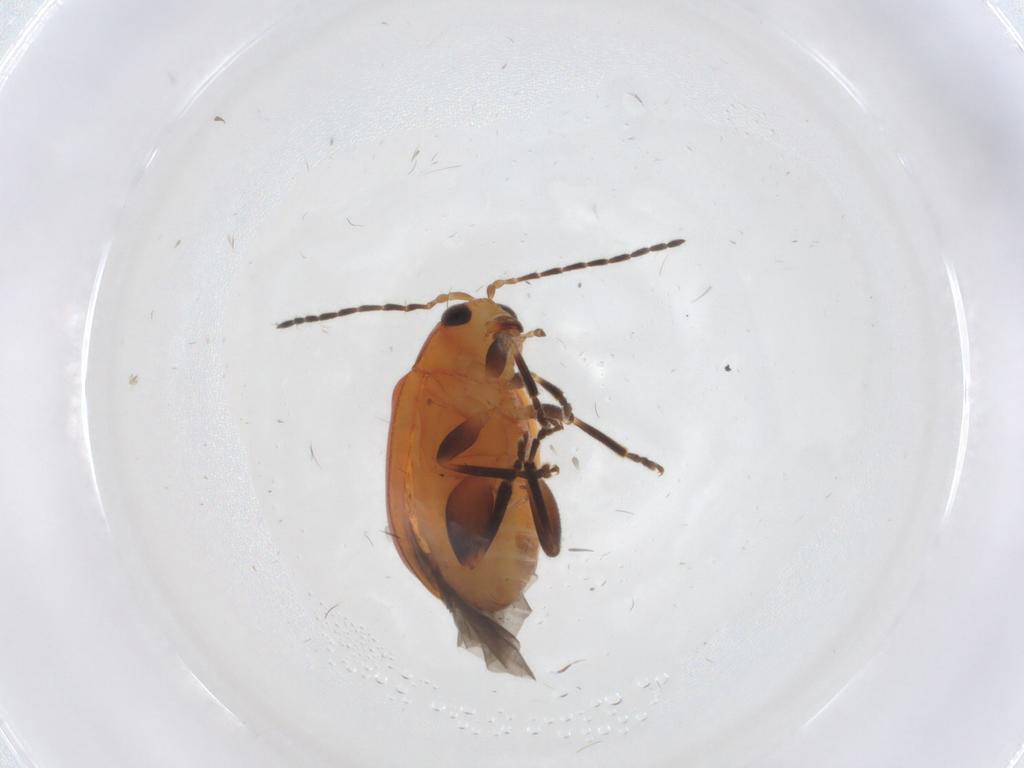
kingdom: Animalia
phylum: Arthropoda
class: Insecta
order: Coleoptera
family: Chrysomelidae
